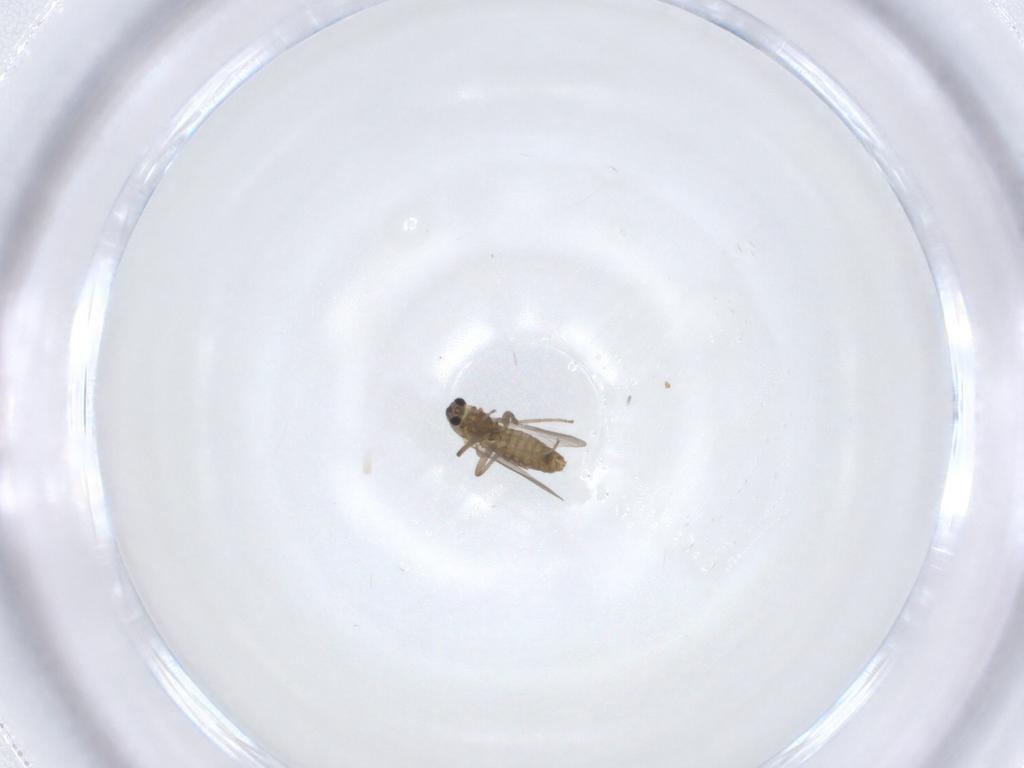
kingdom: Animalia
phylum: Arthropoda
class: Insecta
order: Diptera
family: Chironomidae
